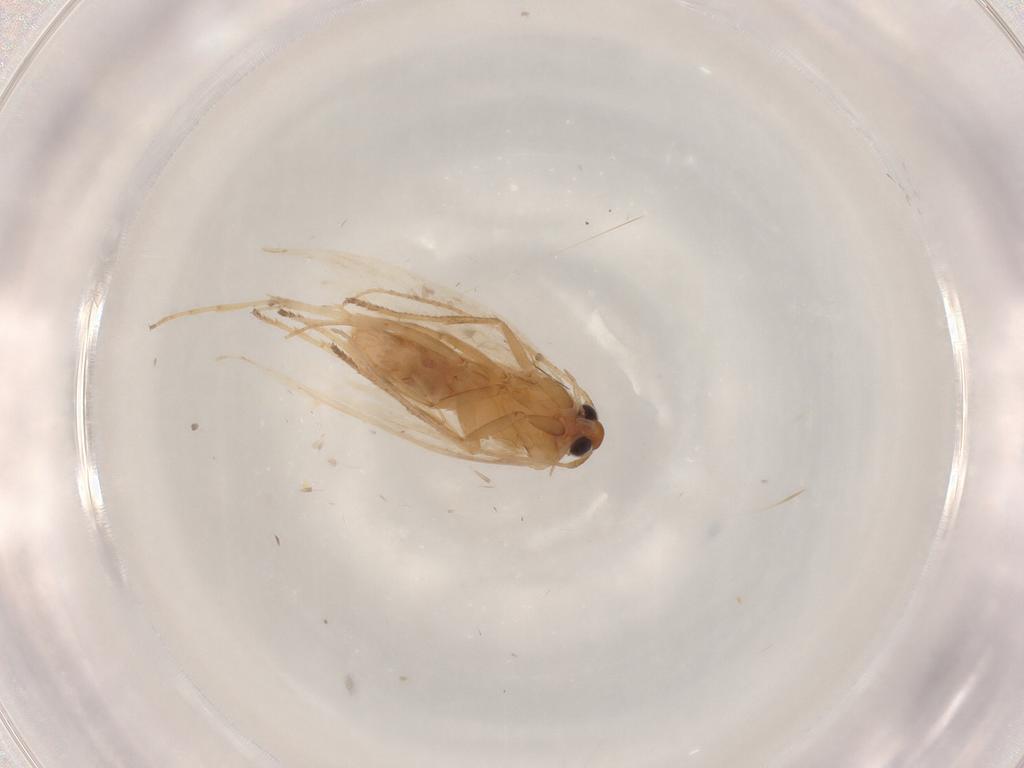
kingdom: Animalia
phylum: Arthropoda
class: Insecta
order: Lepidoptera
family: Gelechiidae
